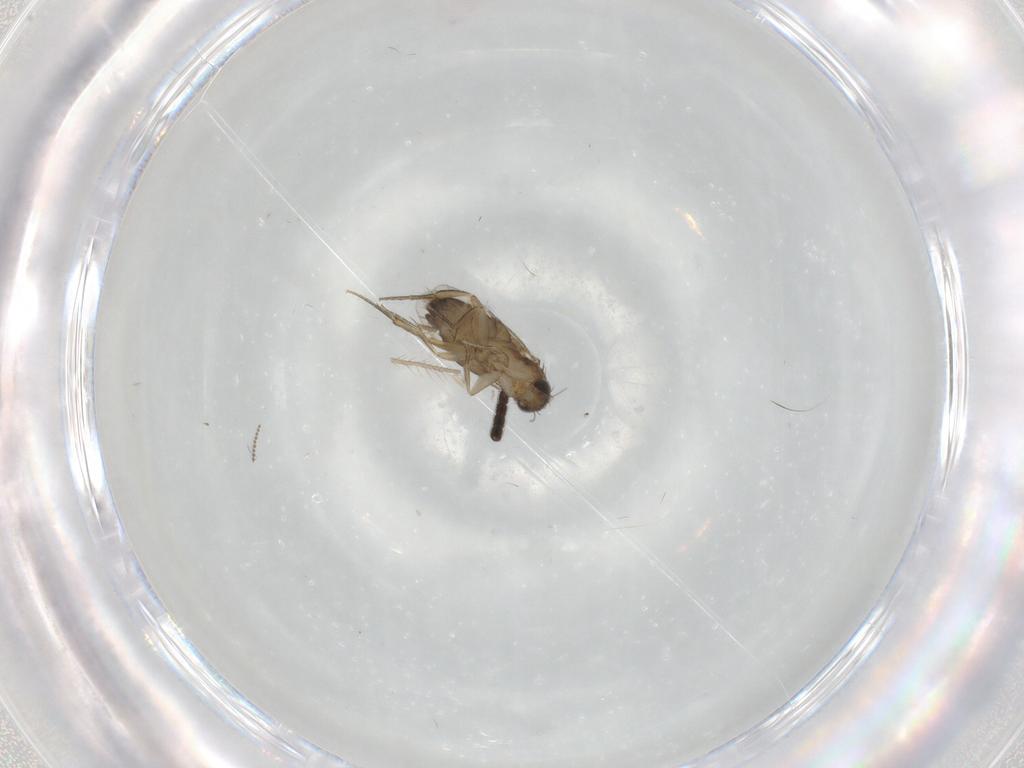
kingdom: Animalia
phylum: Arthropoda
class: Insecta
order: Diptera
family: Phoridae
